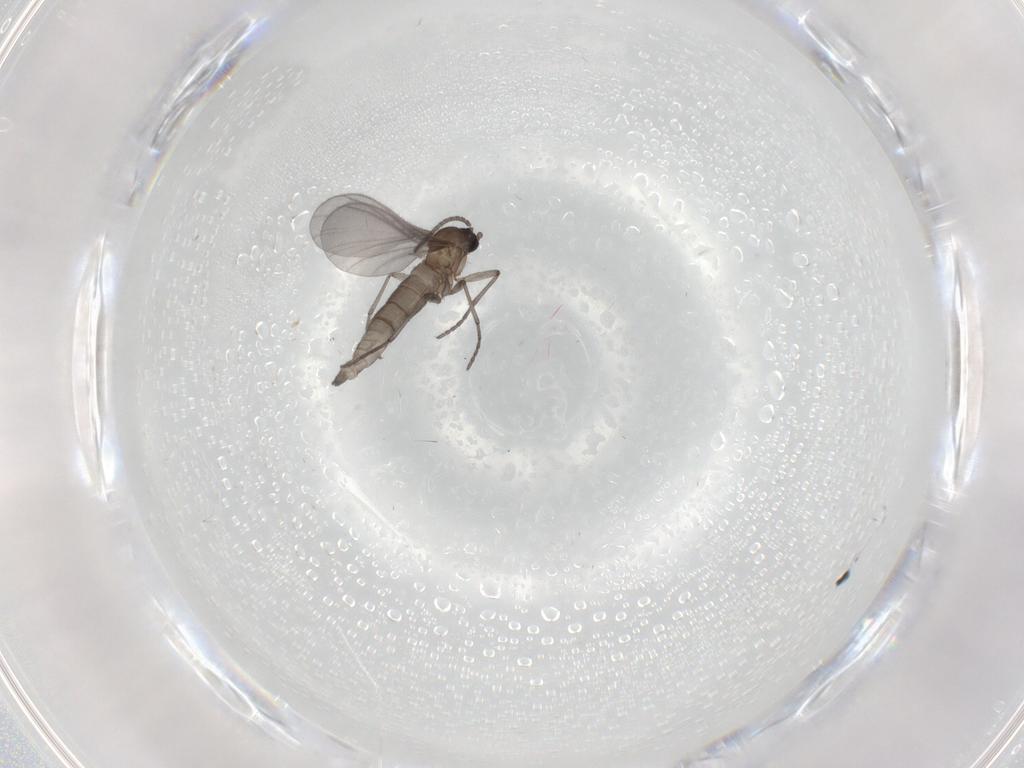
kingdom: Animalia
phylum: Arthropoda
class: Insecta
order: Diptera
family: Sciaridae
